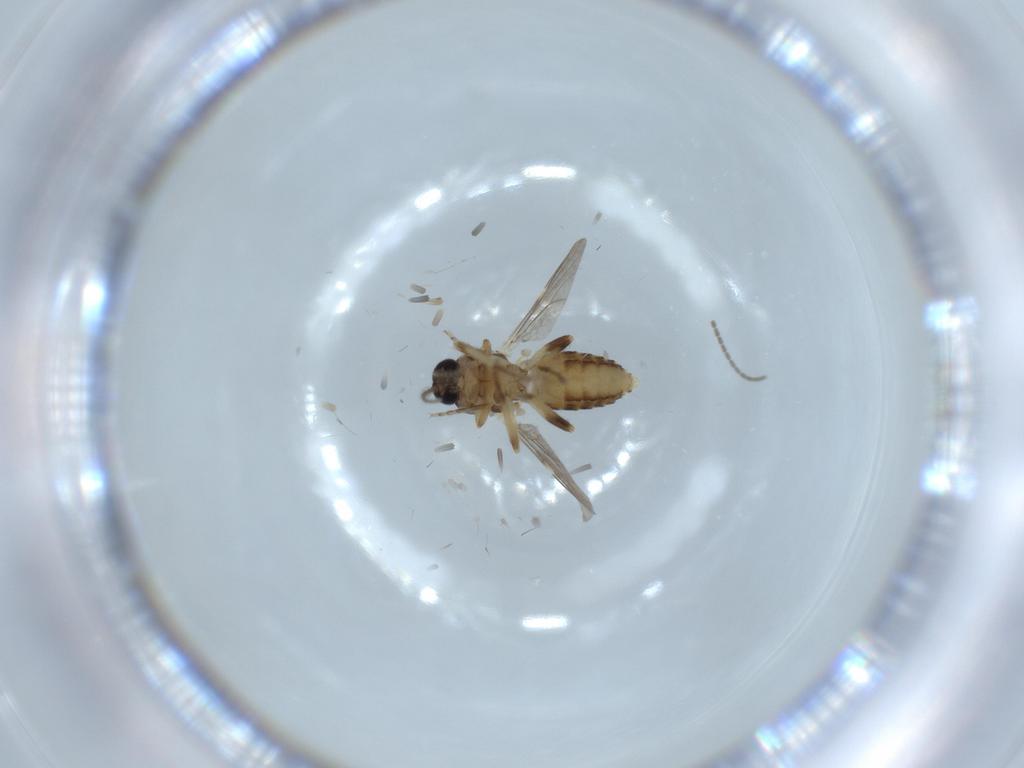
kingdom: Animalia
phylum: Arthropoda
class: Insecta
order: Diptera
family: Ceratopogonidae
